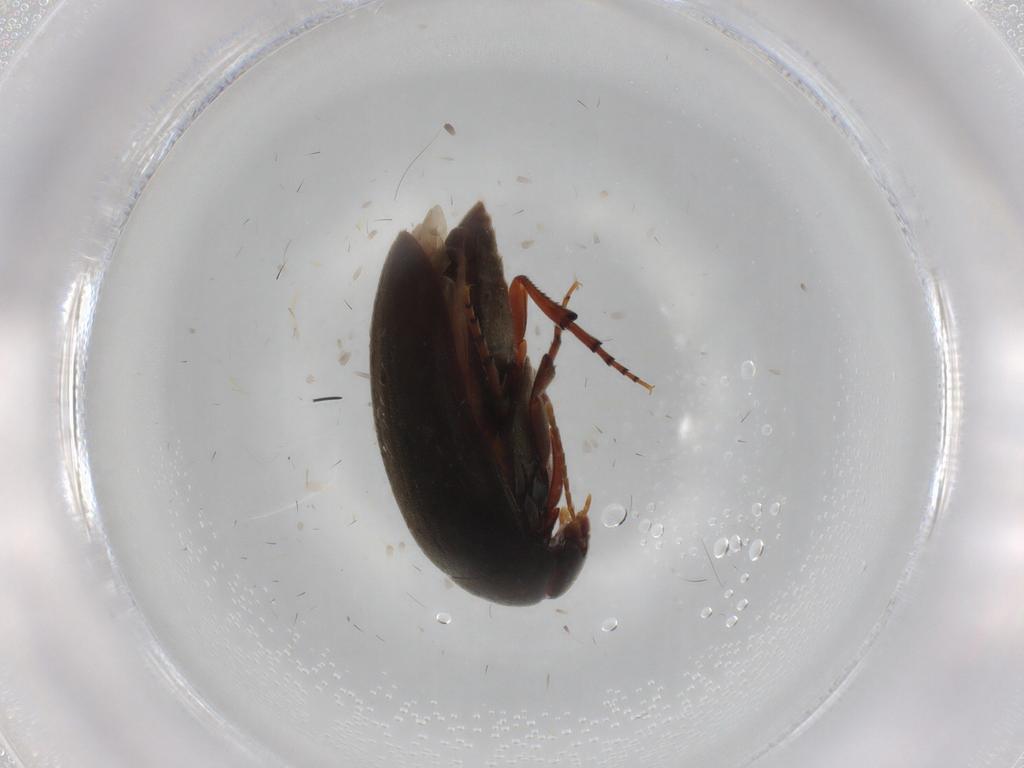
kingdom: Animalia
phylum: Arthropoda
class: Insecta
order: Coleoptera
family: Eucinetidae
